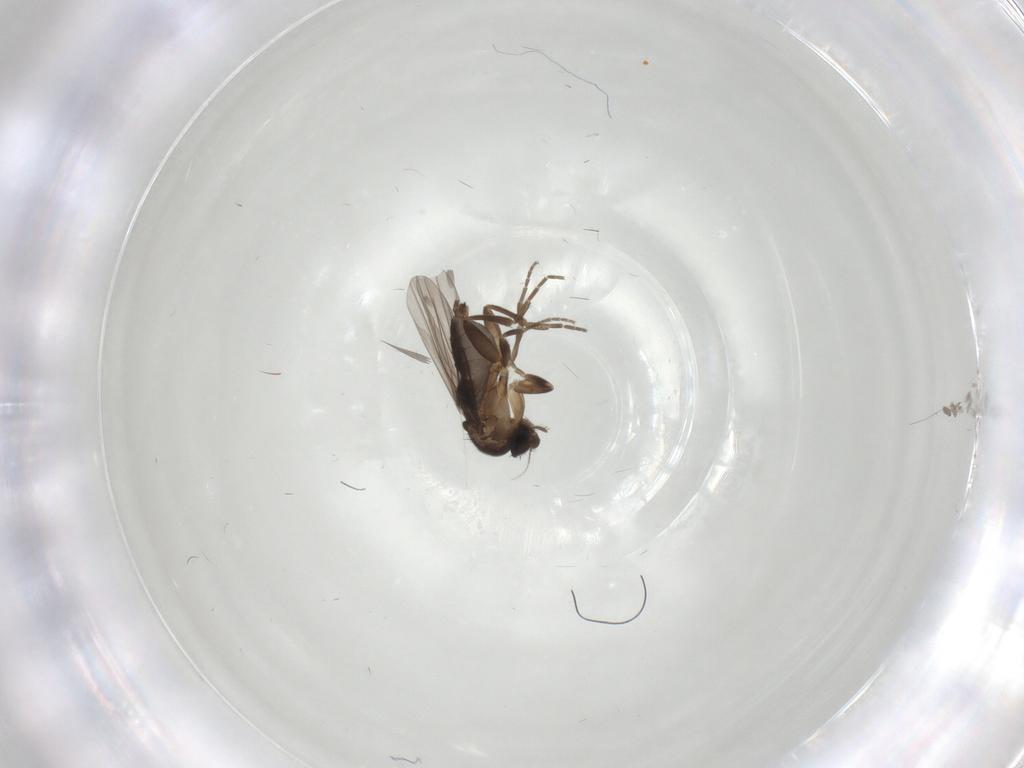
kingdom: Animalia
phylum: Arthropoda
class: Insecta
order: Diptera
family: Phoridae
